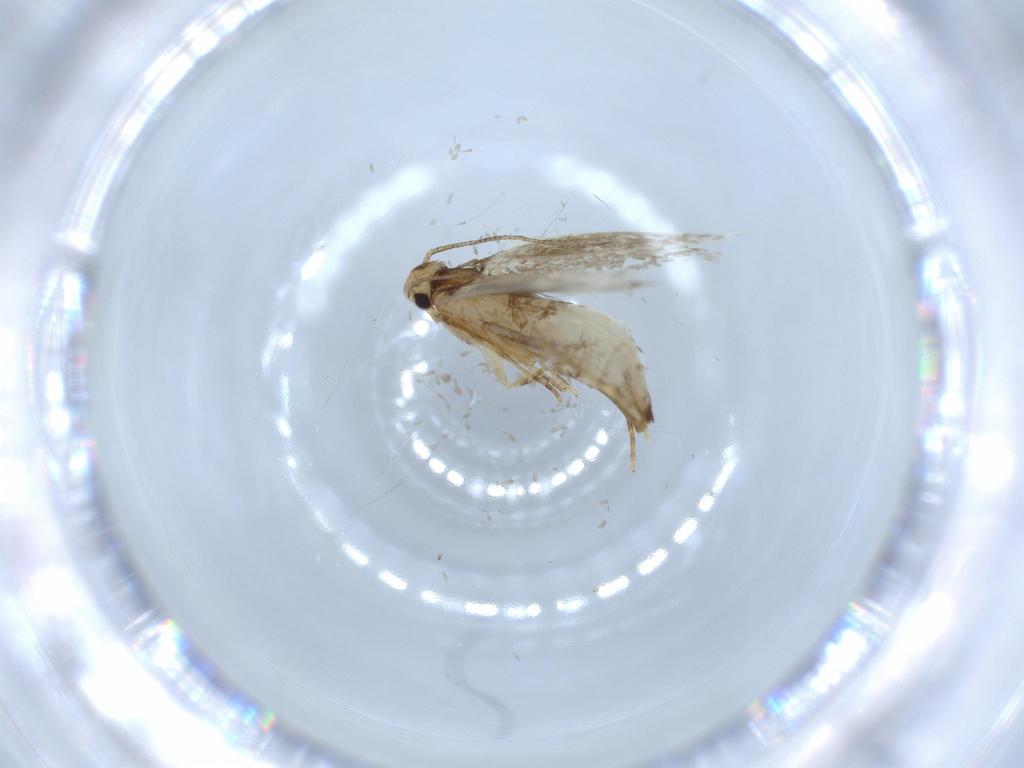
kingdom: Animalia
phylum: Arthropoda
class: Insecta
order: Lepidoptera
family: Tineidae
